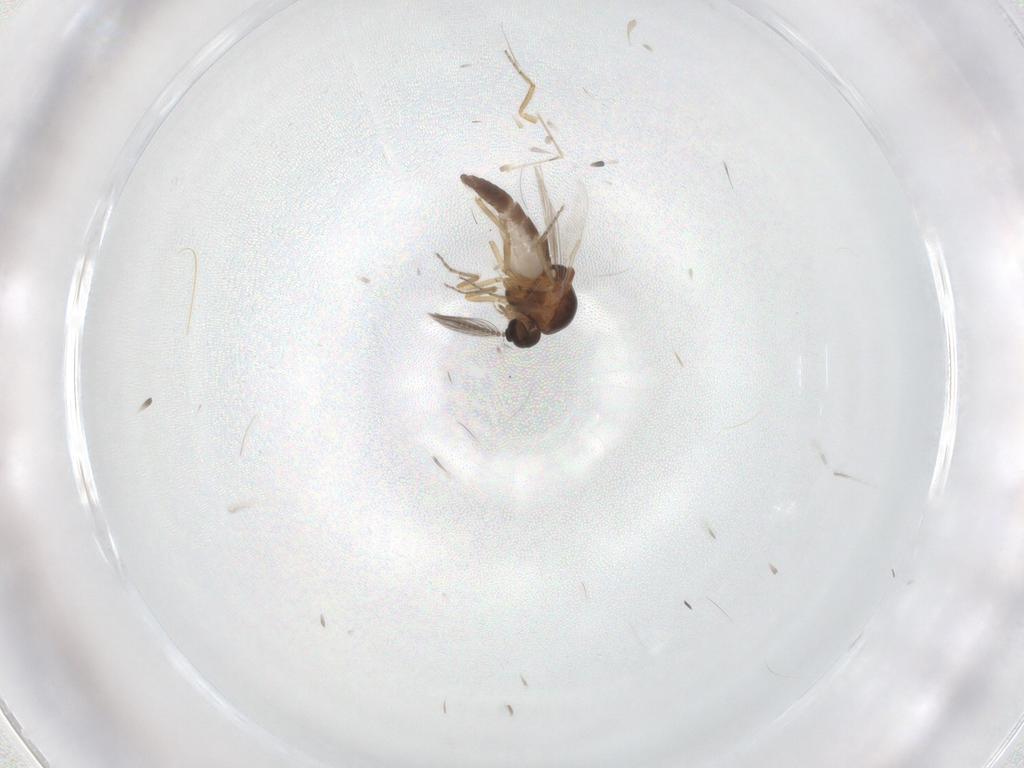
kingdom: Animalia
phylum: Arthropoda
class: Insecta
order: Diptera
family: Ceratopogonidae
